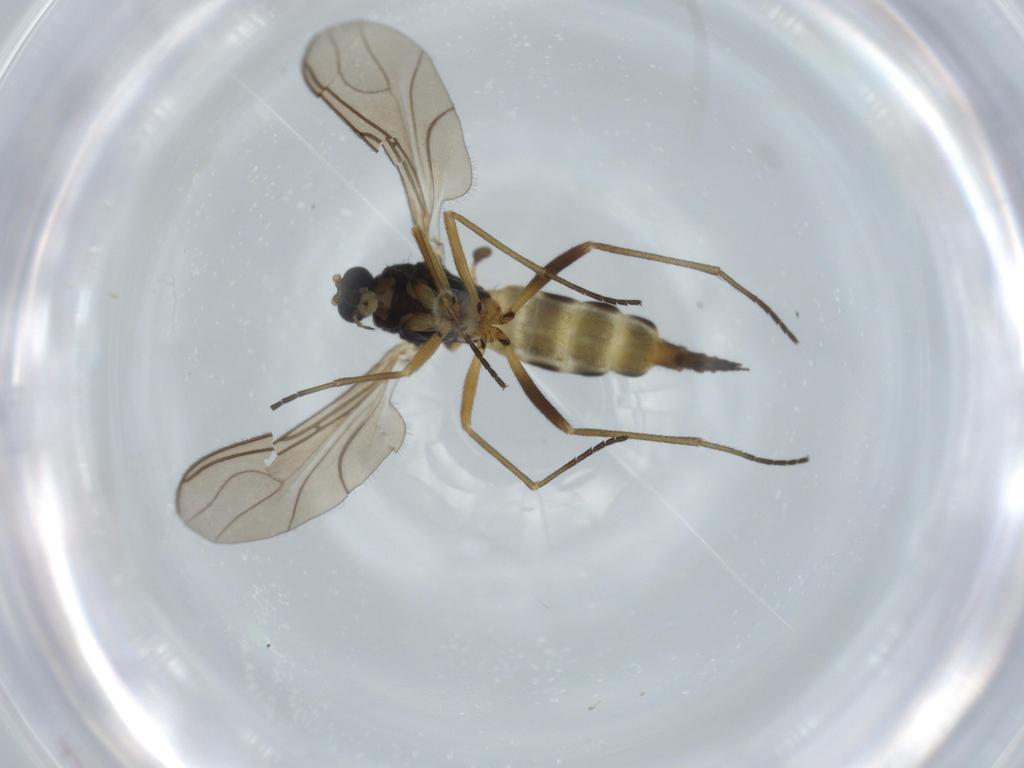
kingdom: Animalia
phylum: Arthropoda
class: Insecta
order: Diptera
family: Sciaridae
